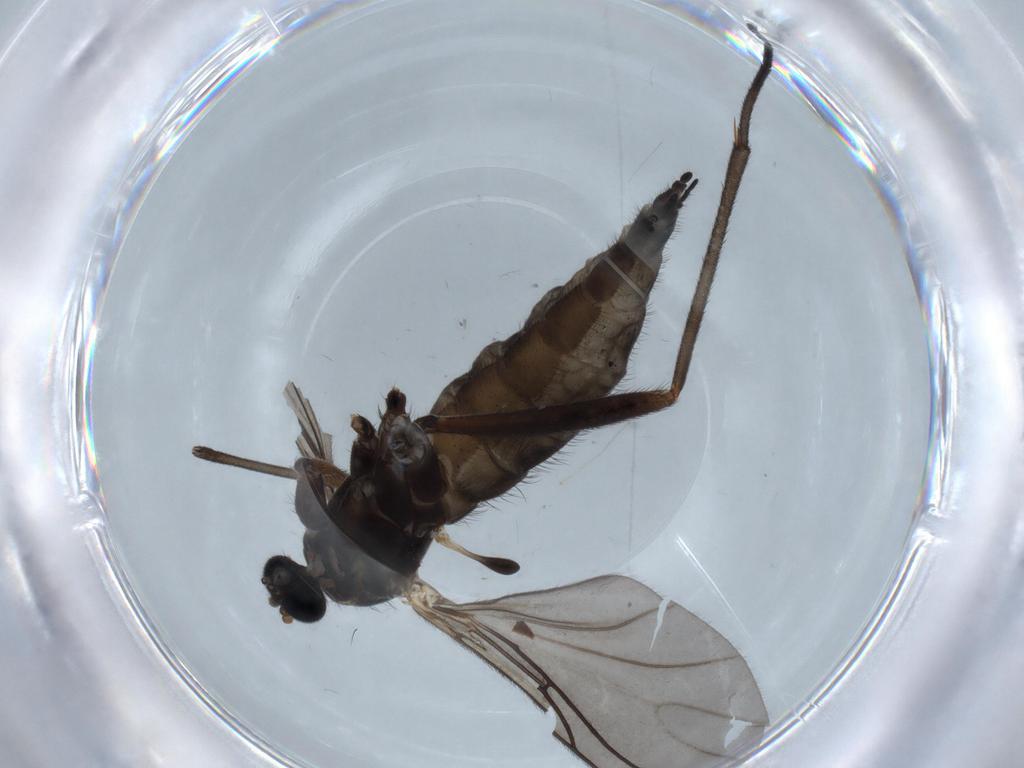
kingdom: Animalia
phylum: Arthropoda
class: Insecta
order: Diptera
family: Sciaridae
